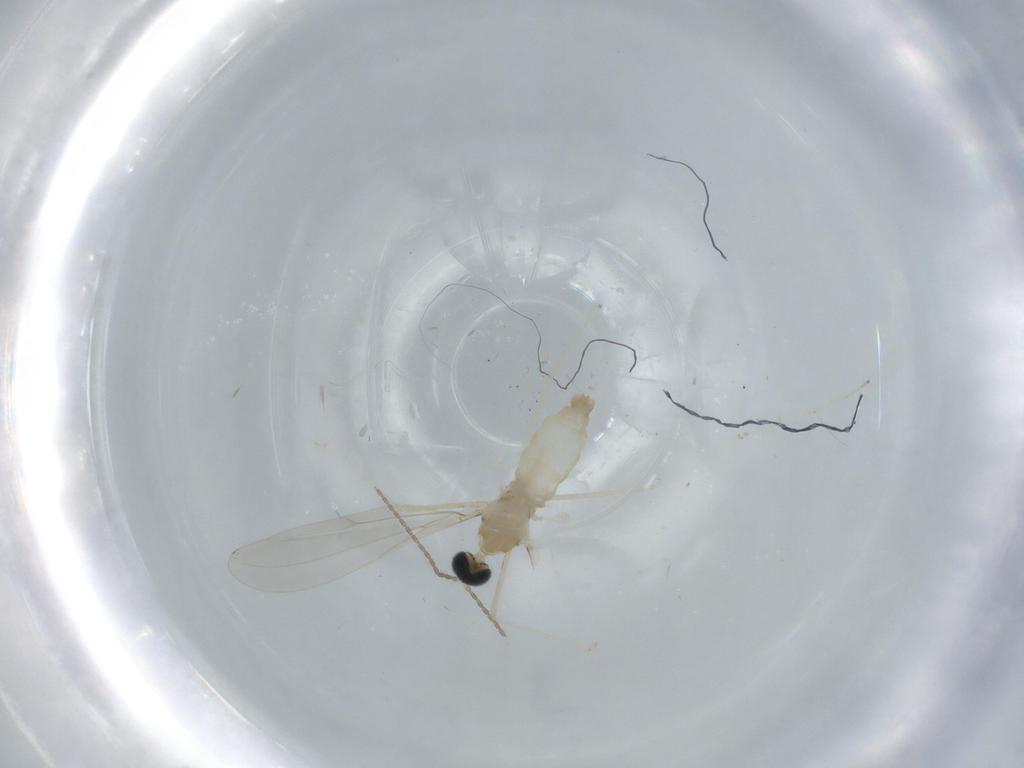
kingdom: Animalia
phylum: Arthropoda
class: Insecta
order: Diptera
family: Cecidomyiidae
